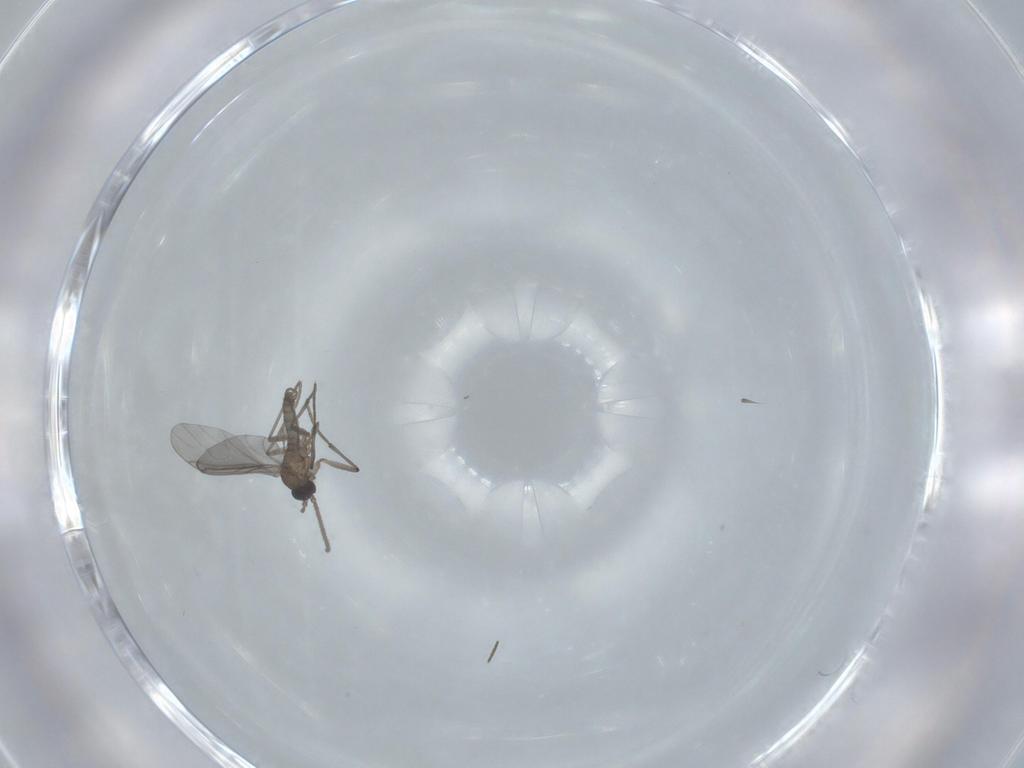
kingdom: Animalia
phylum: Arthropoda
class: Insecta
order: Diptera
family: Sciaridae
